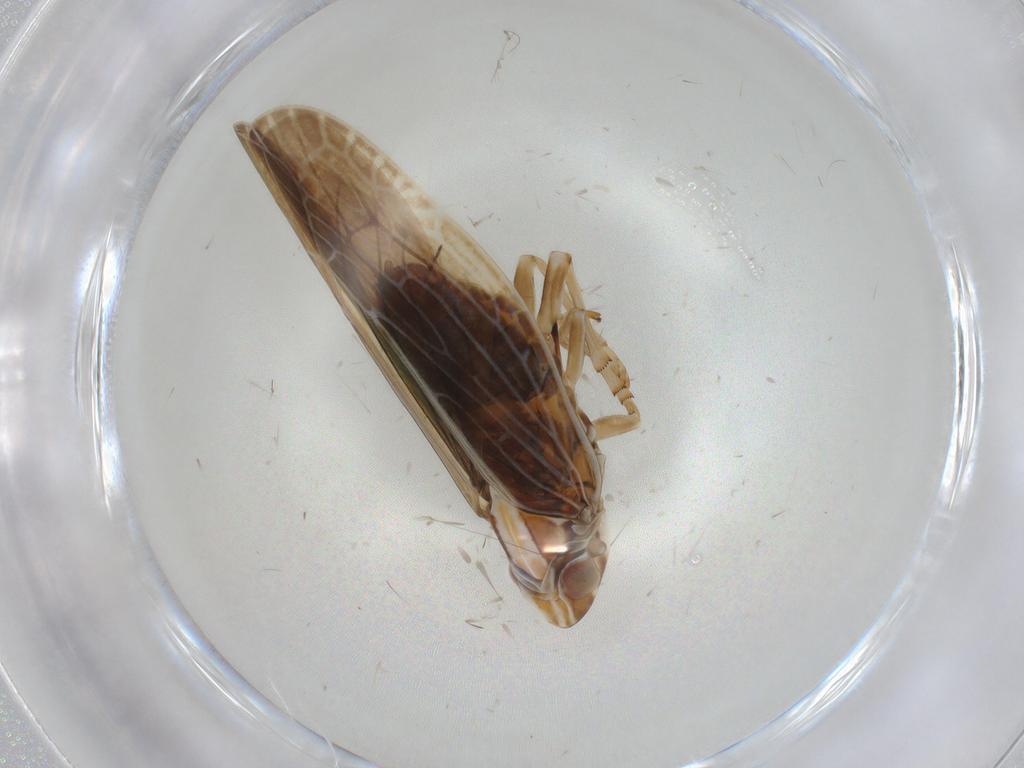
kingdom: Animalia
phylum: Arthropoda
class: Insecta
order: Hemiptera
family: Achilidae
